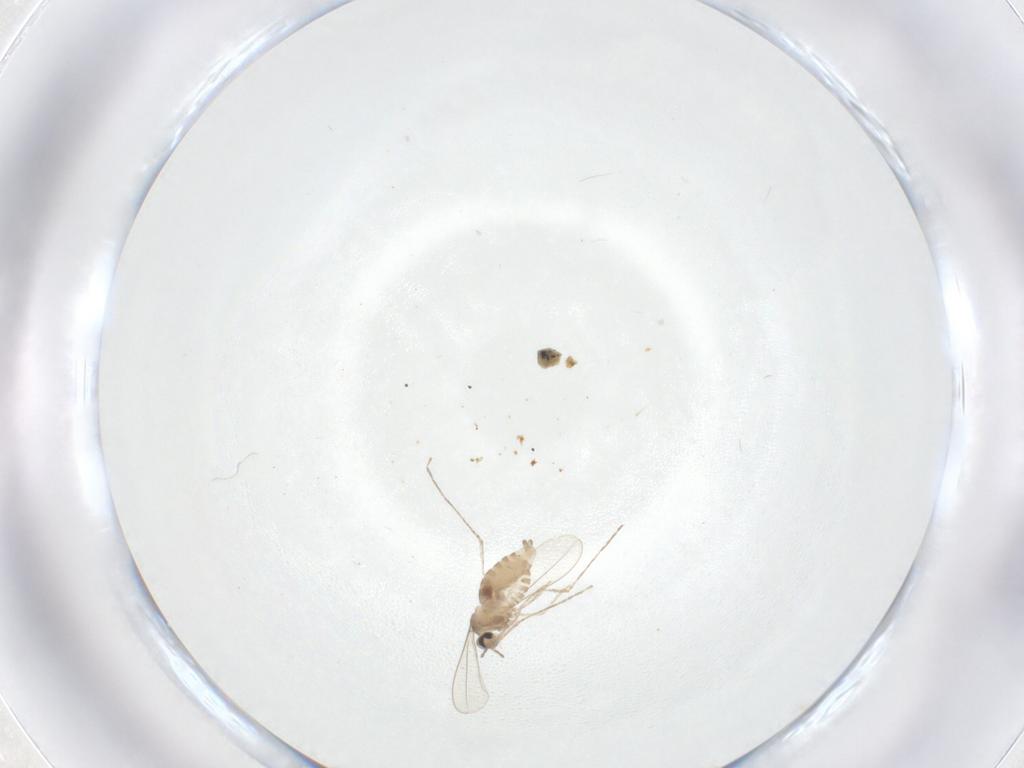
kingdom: Animalia
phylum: Arthropoda
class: Insecta
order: Diptera
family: Cecidomyiidae
